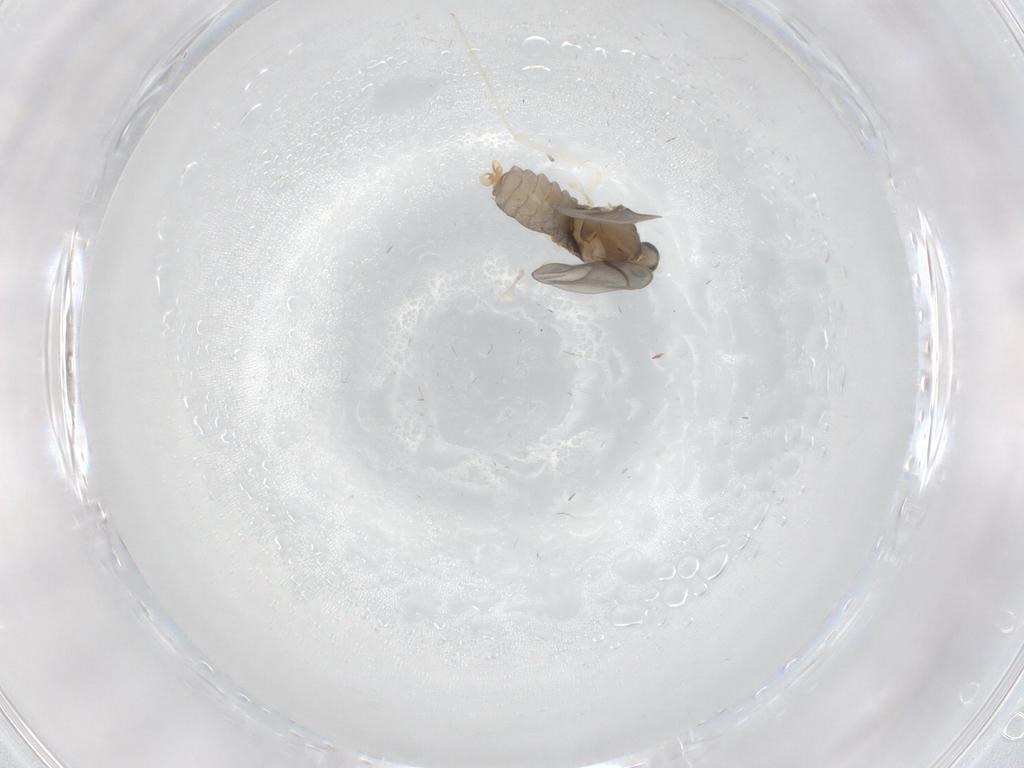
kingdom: Animalia
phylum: Arthropoda
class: Insecta
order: Diptera
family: Cecidomyiidae
